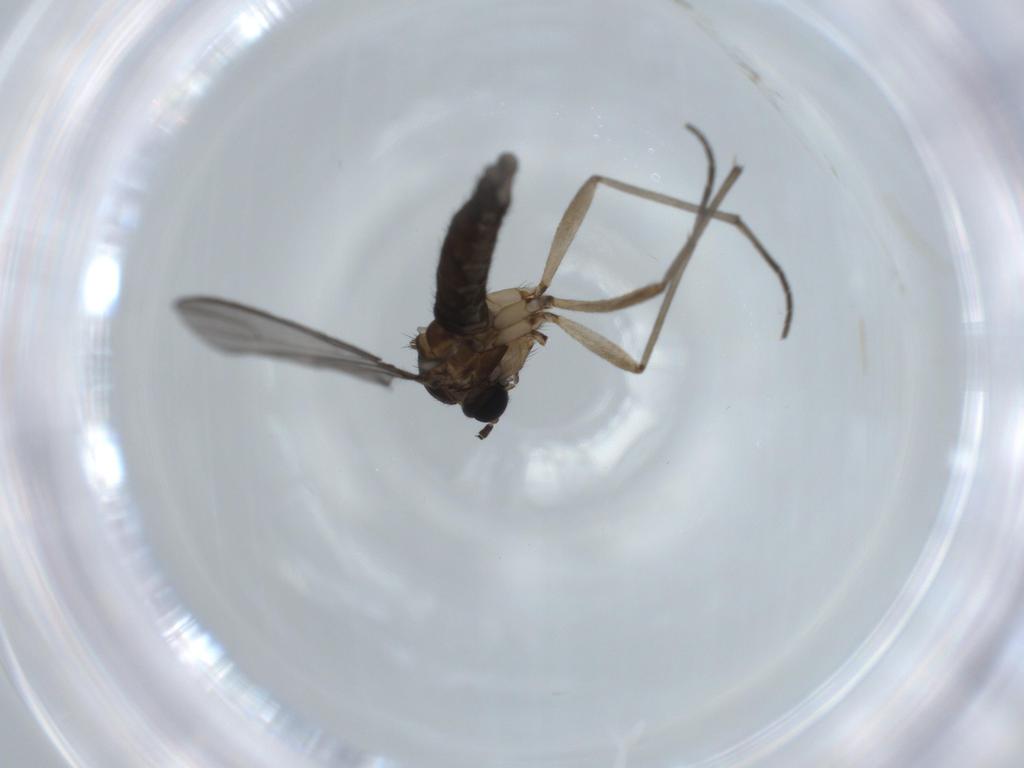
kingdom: Animalia
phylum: Arthropoda
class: Insecta
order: Diptera
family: Sciaridae
